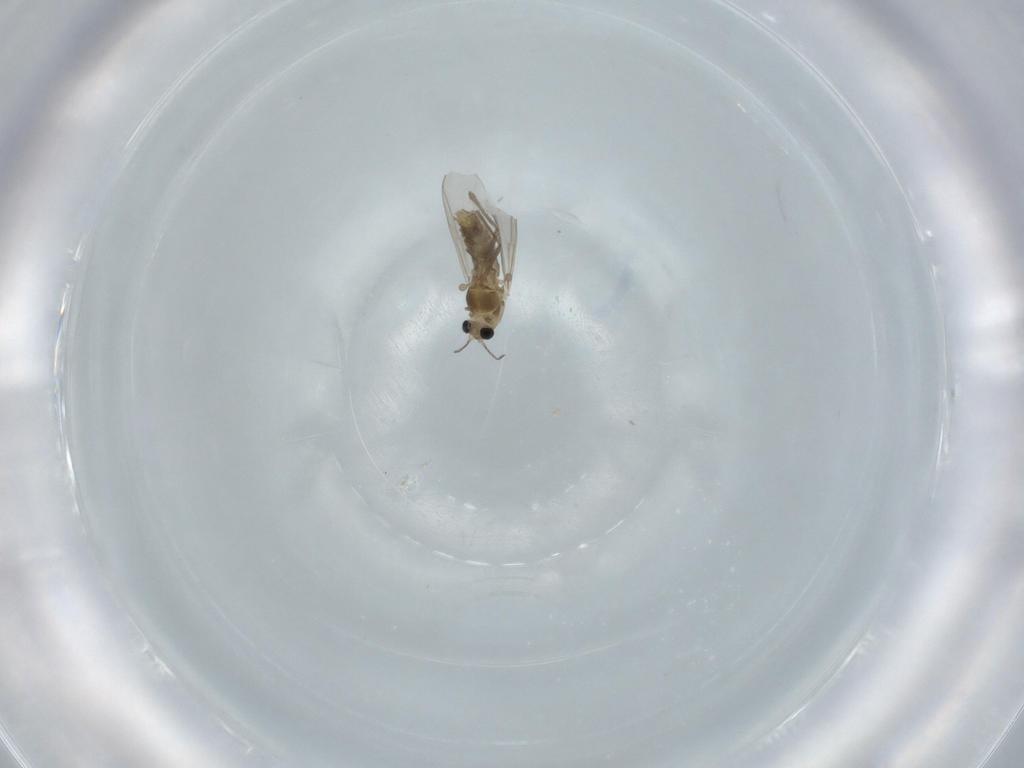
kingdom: Animalia
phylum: Arthropoda
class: Insecta
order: Diptera
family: Chironomidae
